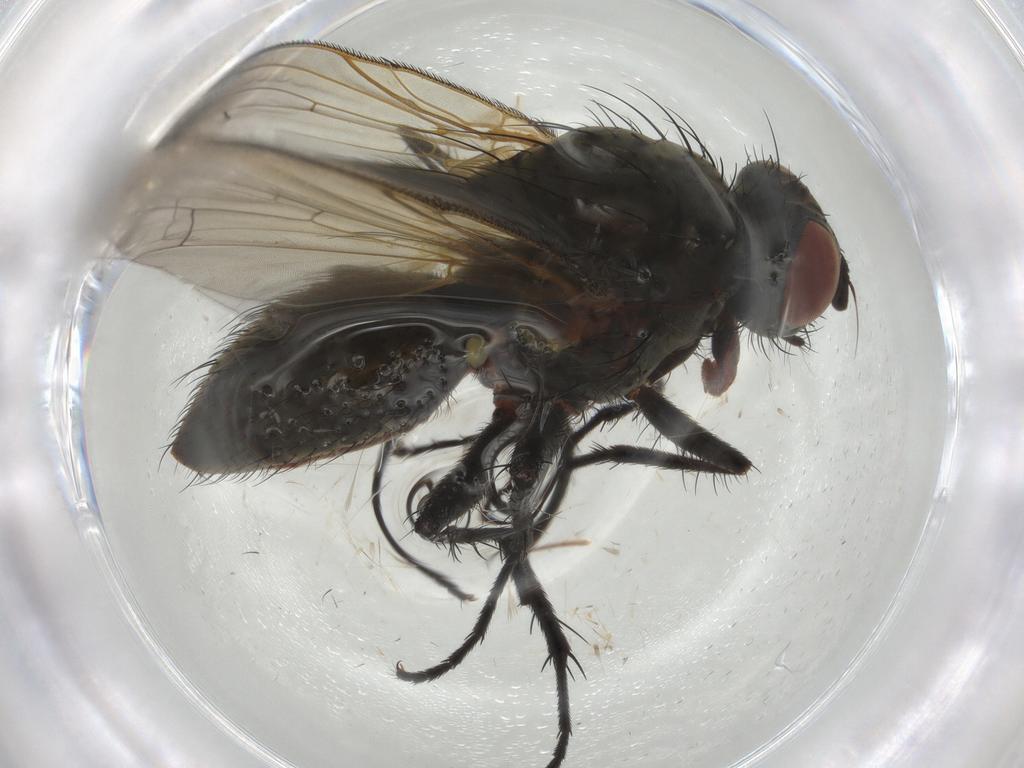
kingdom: Animalia
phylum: Arthropoda
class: Insecta
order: Diptera
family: Anthomyiidae
